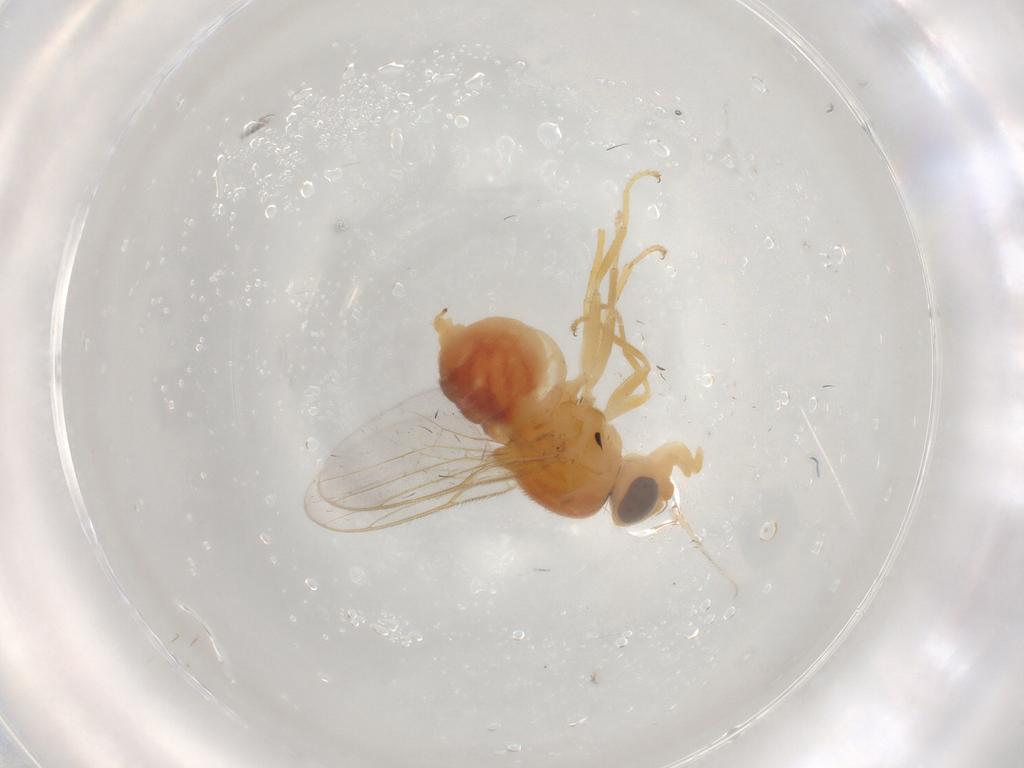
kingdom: Animalia
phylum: Arthropoda
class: Insecta
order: Diptera
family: Chloropidae
